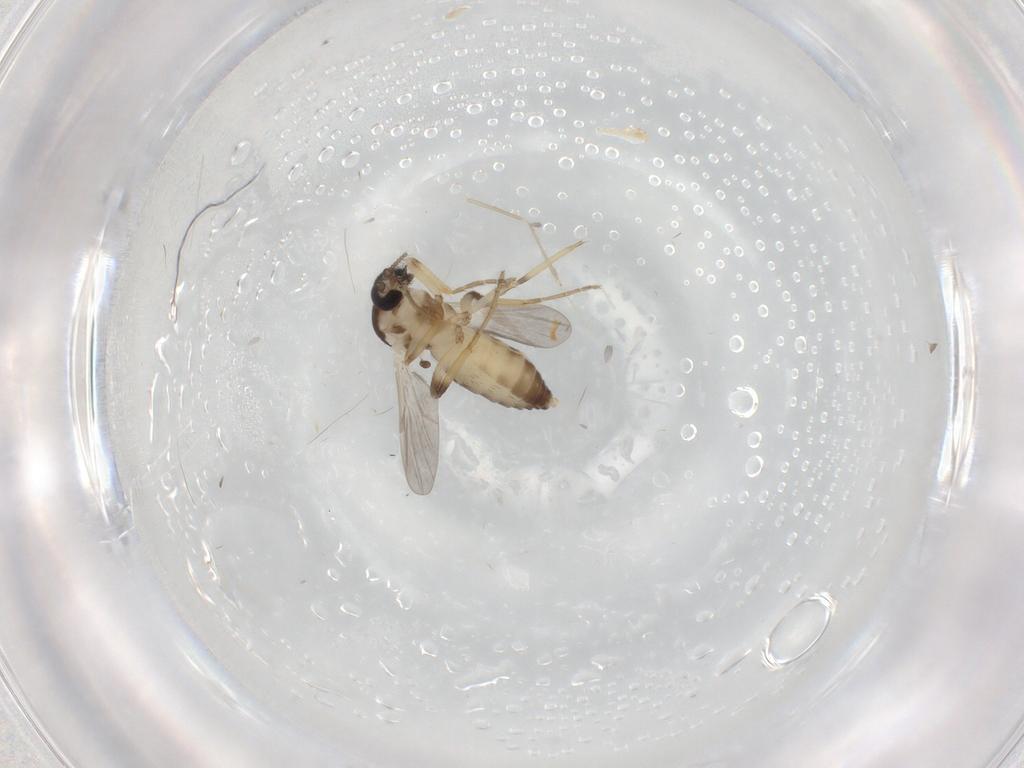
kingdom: Animalia
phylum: Arthropoda
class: Insecta
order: Diptera
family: Ceratopogonidae
